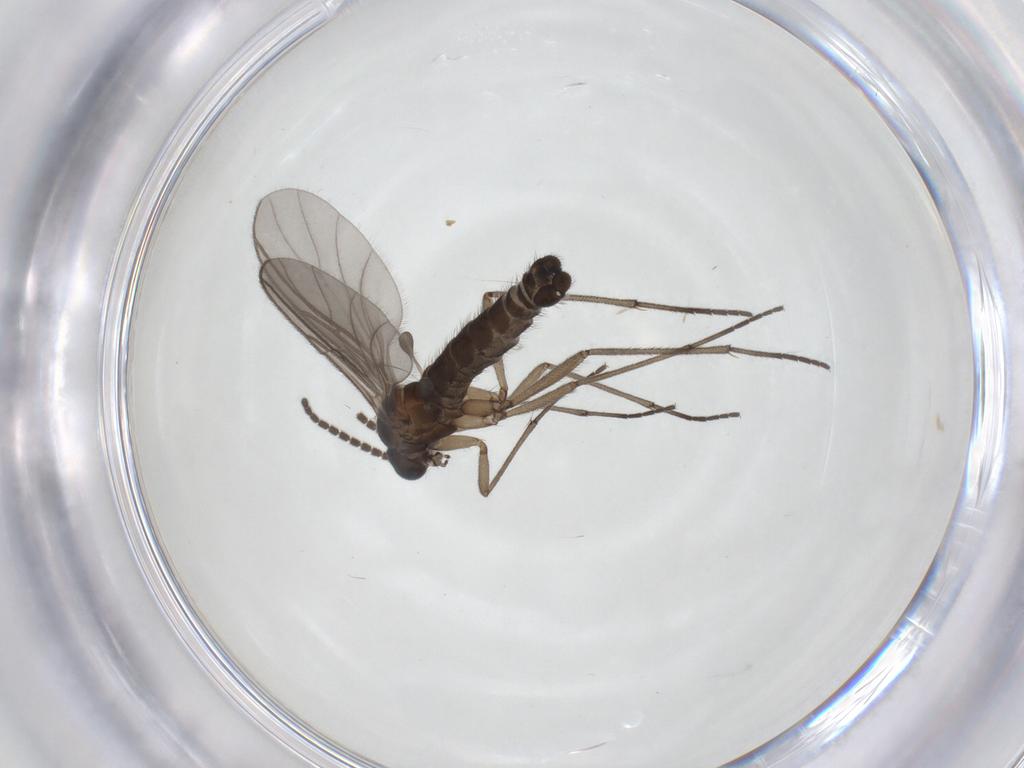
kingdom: Animalia
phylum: Arthropoda
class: Insecta
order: Diptera
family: Sciaridae
